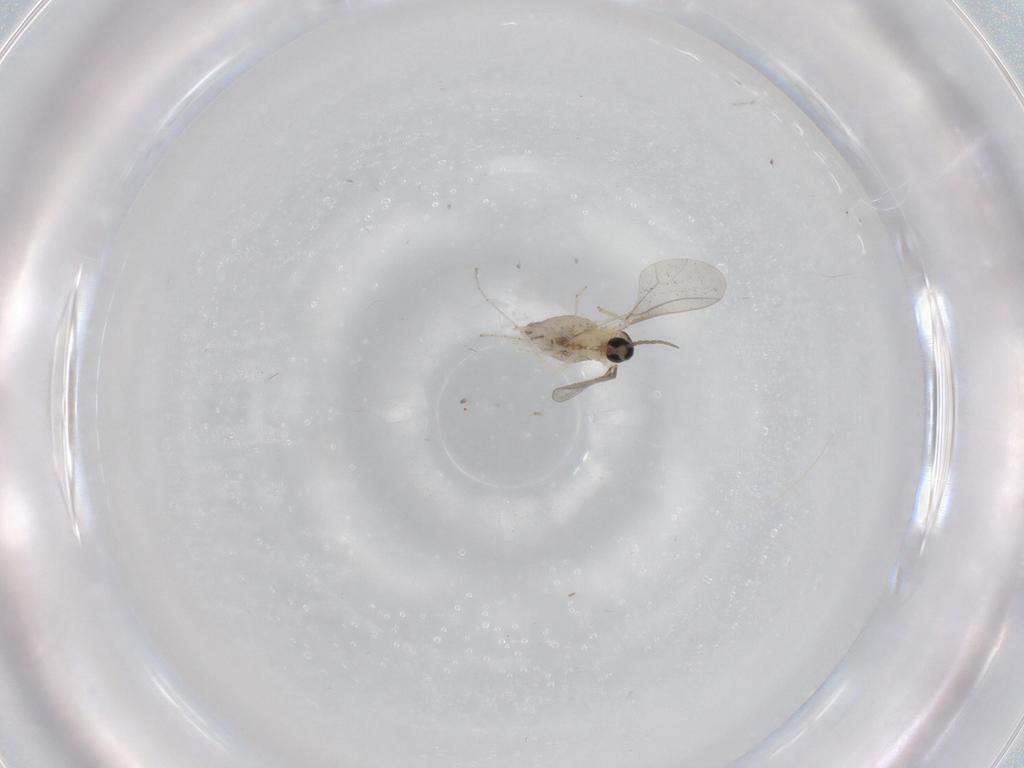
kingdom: Animalia
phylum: Arthropoda
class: Insecta
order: Diptera
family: Cecidomyiidae
